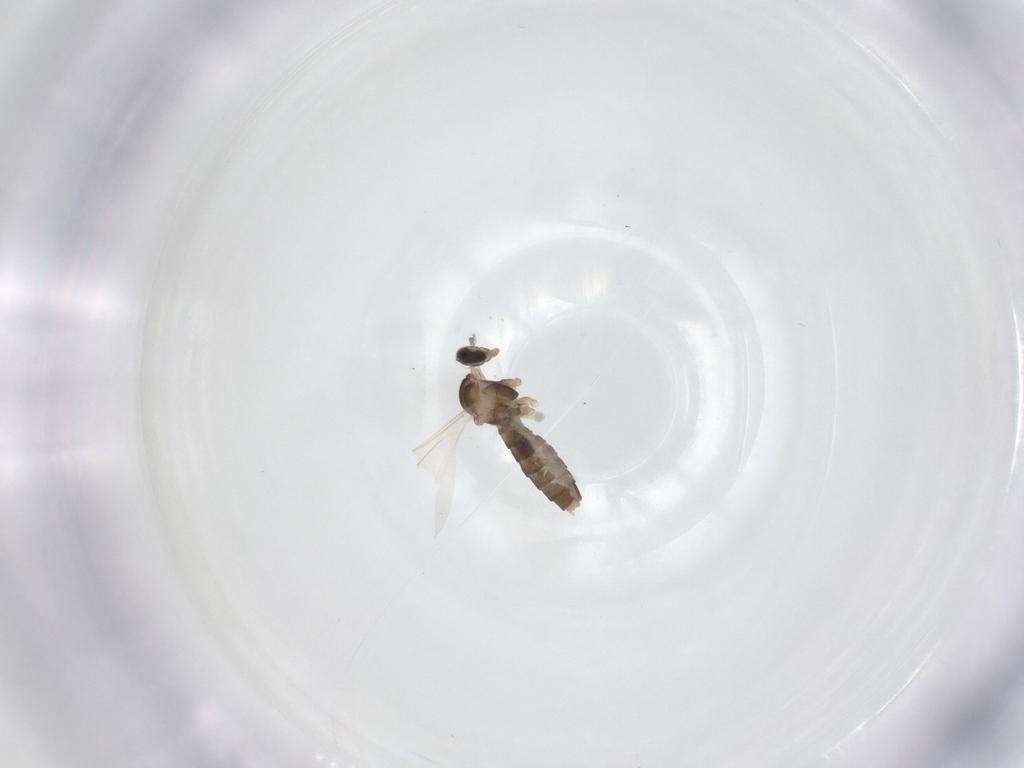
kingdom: Animalia
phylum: Arthropoda
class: Insecta
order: Diptera
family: Cecidomyiidae
